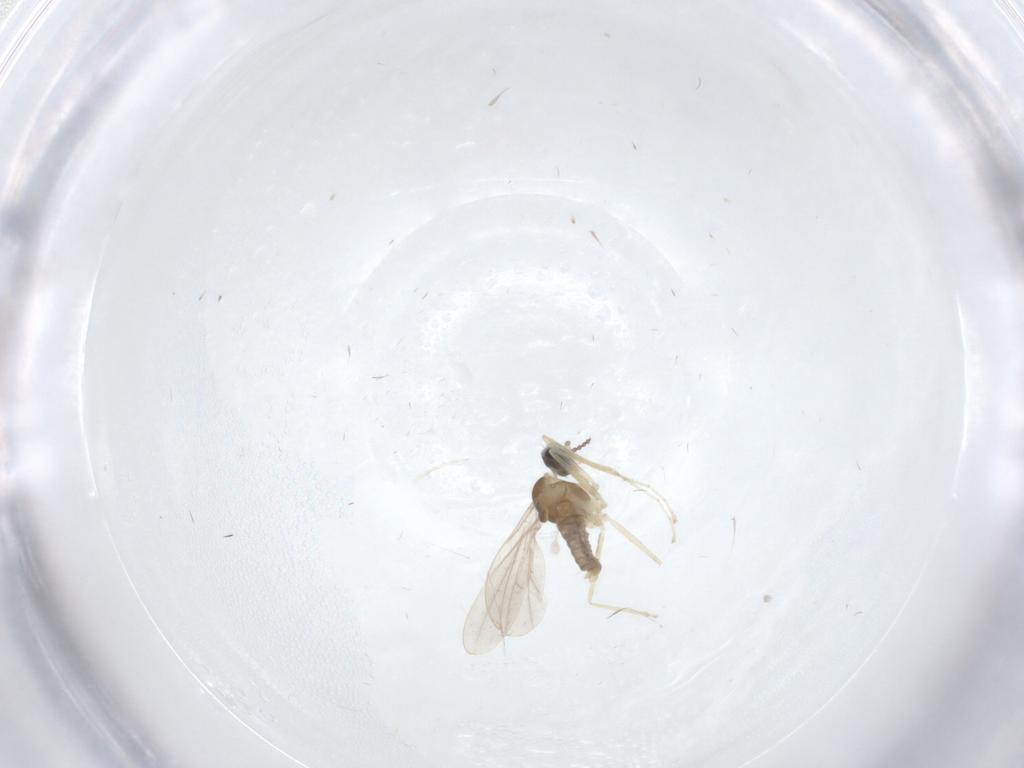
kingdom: Animalia
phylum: Arthropoda
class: Insecta
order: Diptera
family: Cecidomyiidae
